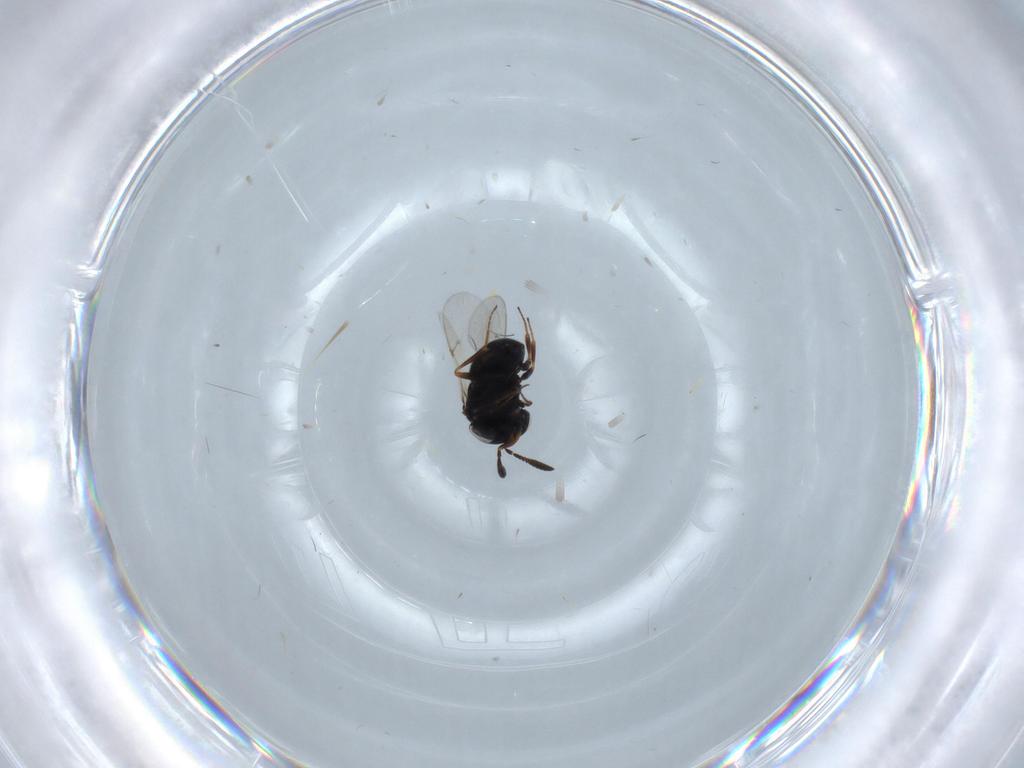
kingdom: Animalia
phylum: Arthropoda
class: Insecta
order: Hymenoptera
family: Scelionidae
